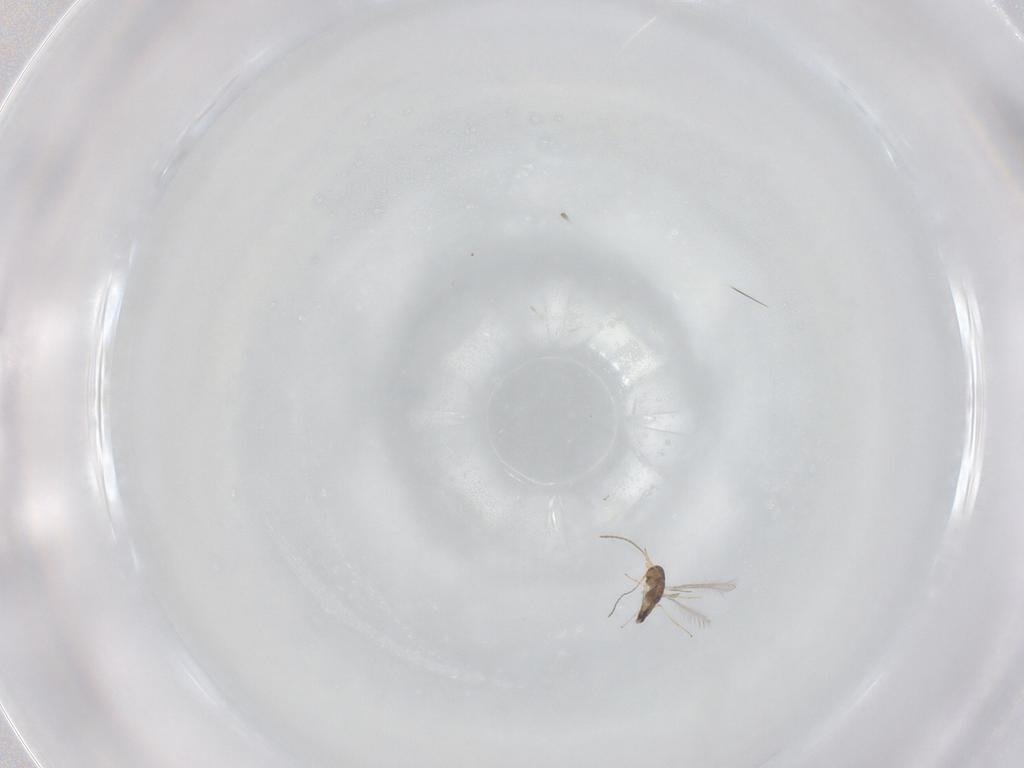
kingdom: Animalia
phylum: Arthropoda
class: Insecta
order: Hymenoptera
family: Mymaridae
